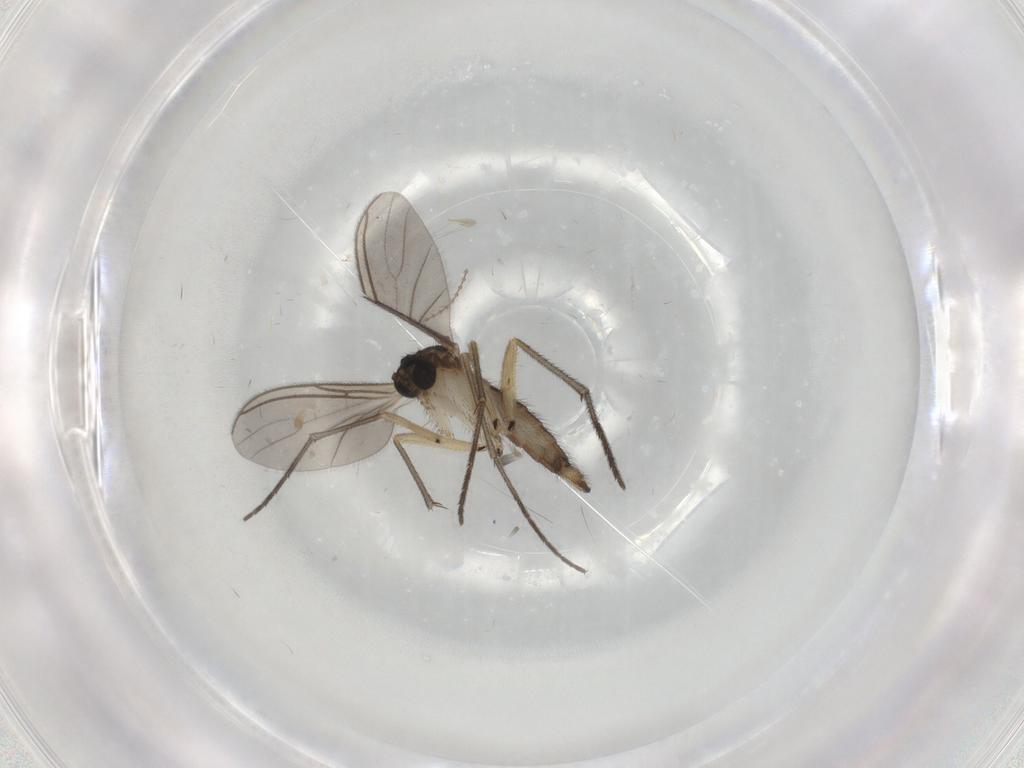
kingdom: Animalia
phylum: Arthropoda
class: Insecta
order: Diptera
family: Sciaridae
